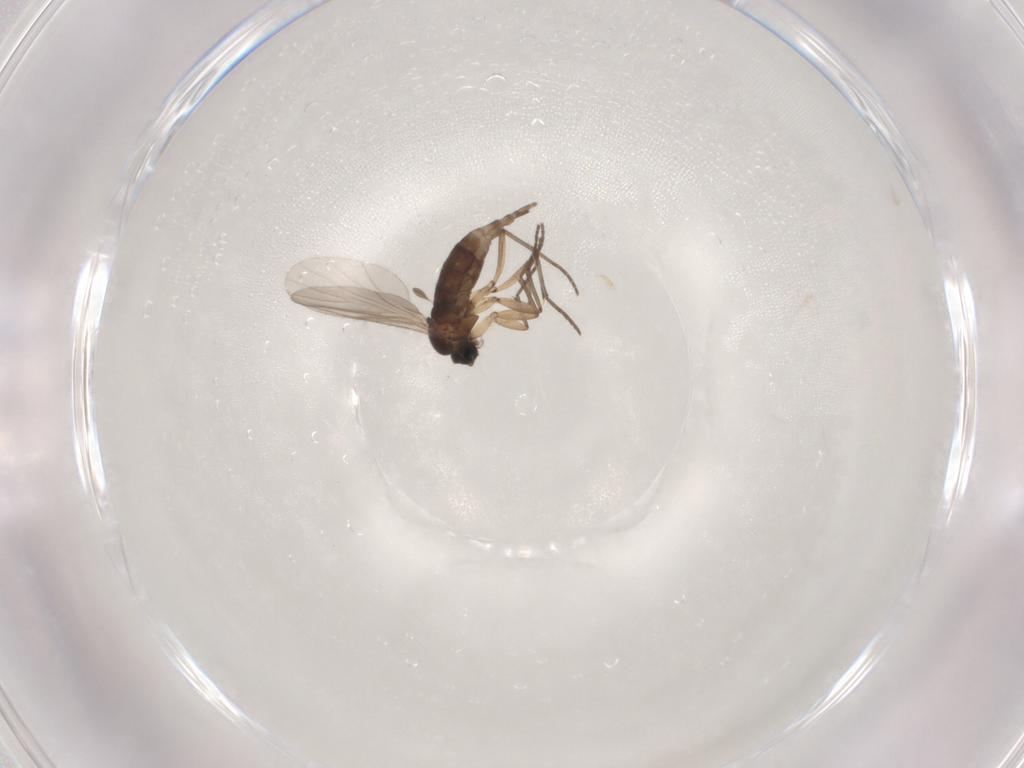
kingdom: Animalia
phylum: Arthropoda
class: Insecta
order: Diptera
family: Sciaridae
